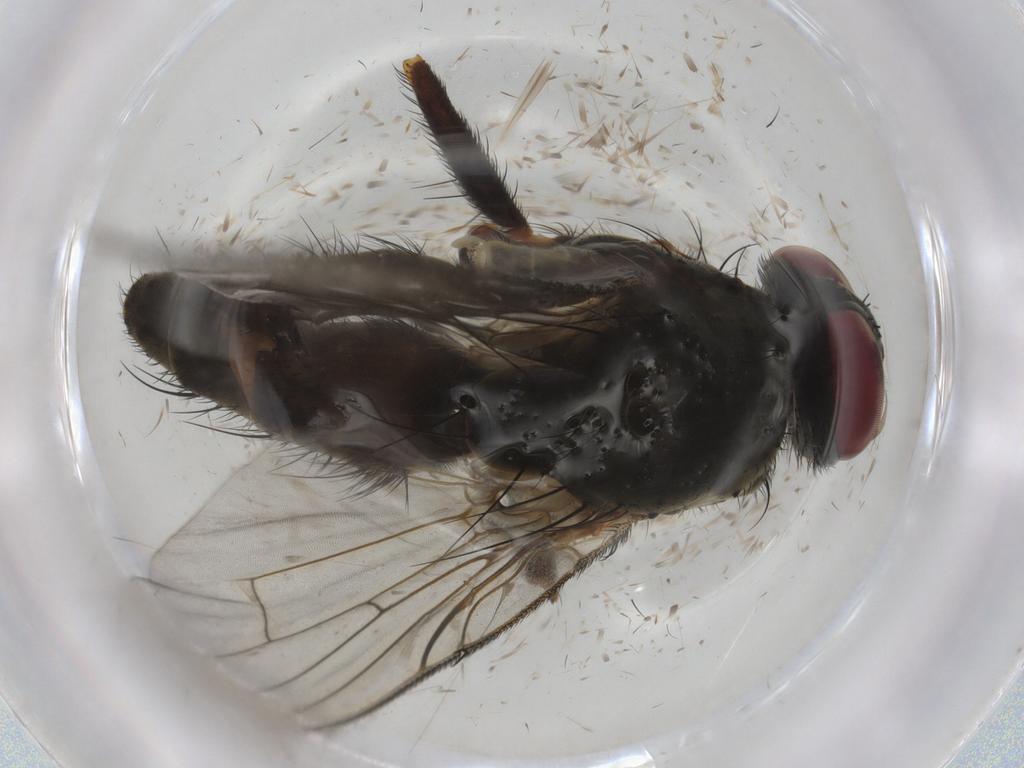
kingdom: Animalia
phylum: Arthropoda
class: Insecta
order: Diptera
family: Muscidae
